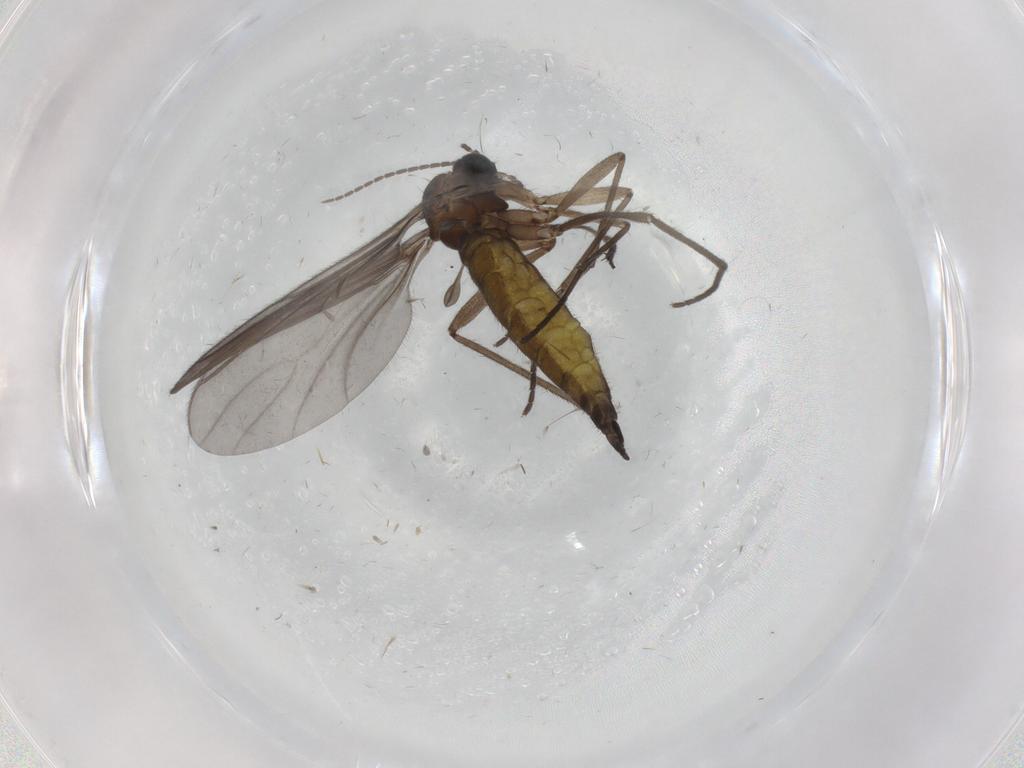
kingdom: Animalia
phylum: Arthropoda
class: Insecta
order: Diptera
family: Sciaridae
